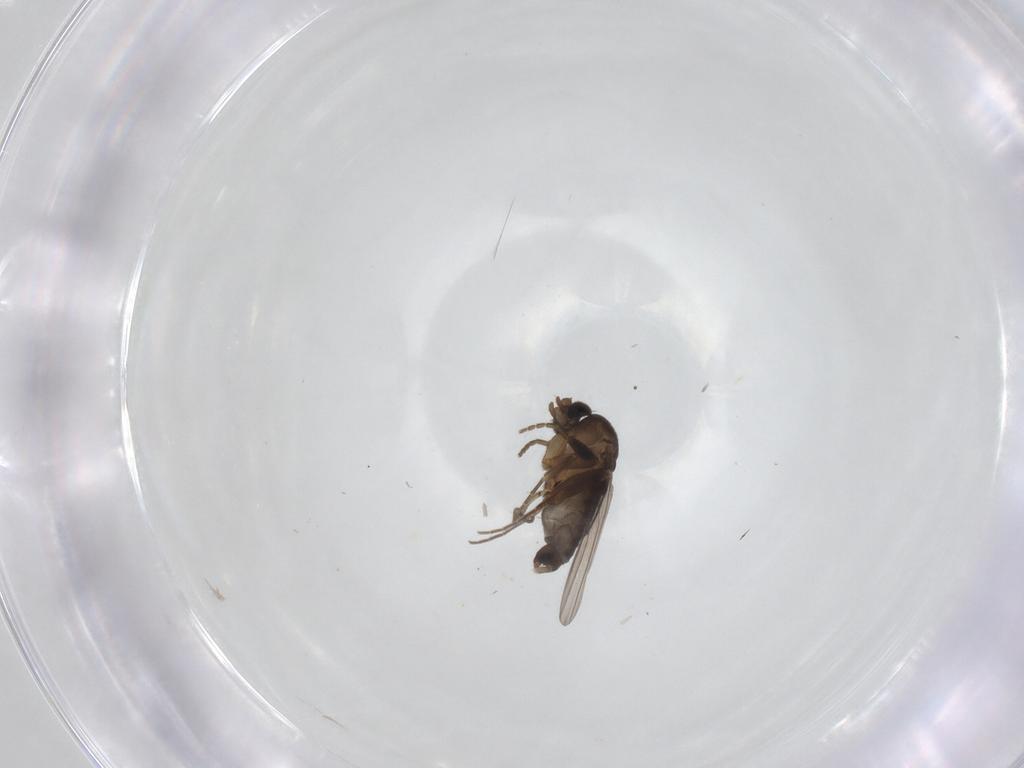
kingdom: Animalia
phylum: Arthropoda
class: Insecta
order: Diptera
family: Phoridae
